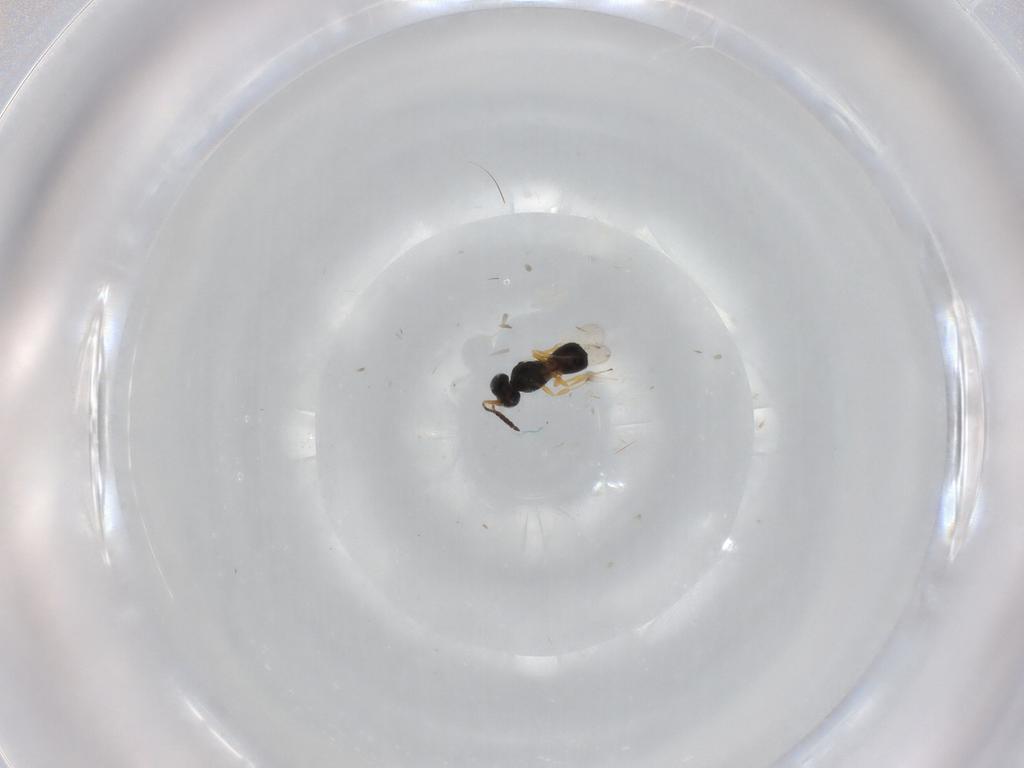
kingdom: Animalia
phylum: Arthropoda
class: Insecta
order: Hymenoptera
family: Scelionidae
